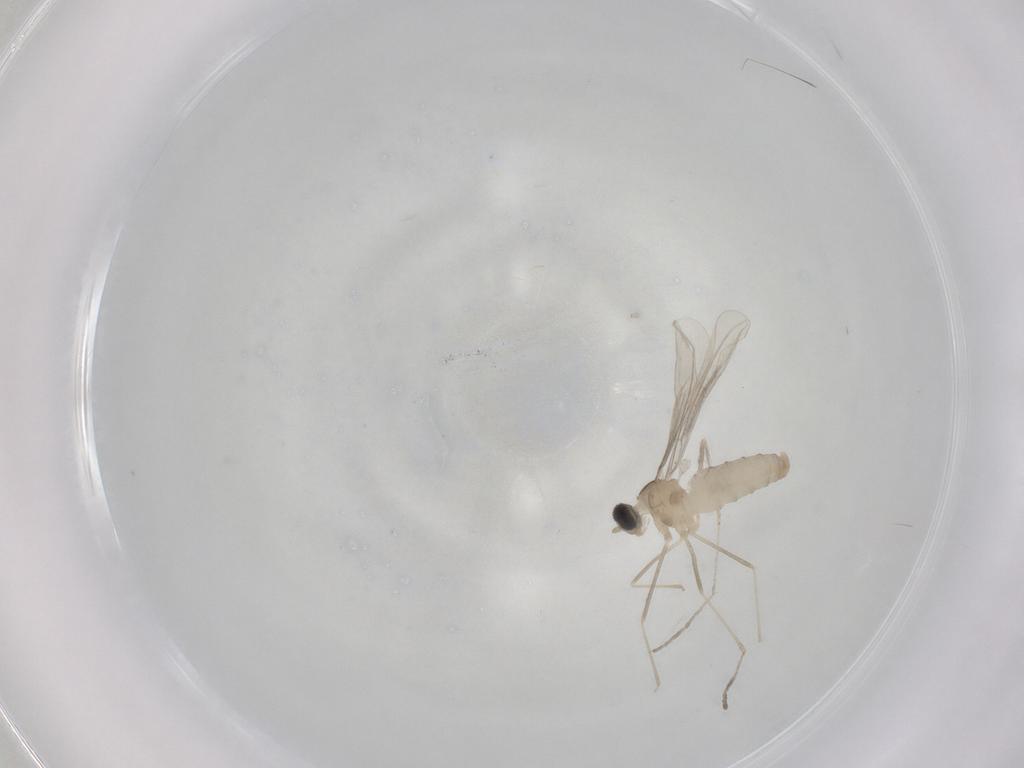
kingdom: Animalia
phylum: Arthropoda
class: Insecta
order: Diptera
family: Cecidomyiidae
